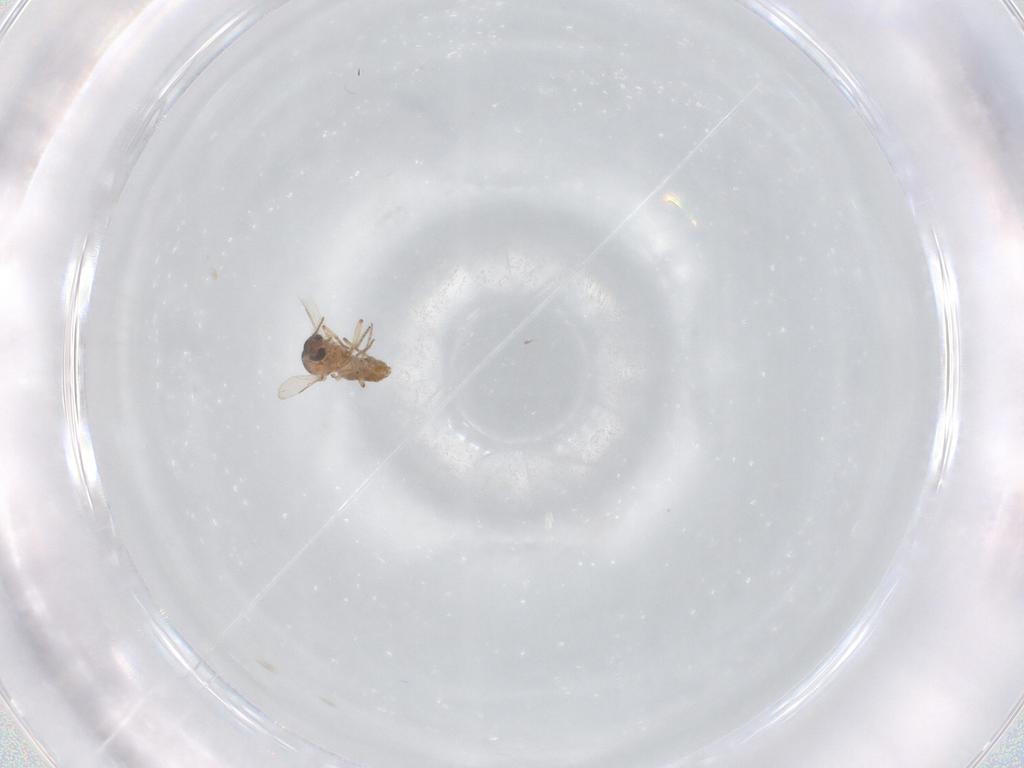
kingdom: Animalia
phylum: Arthropoda
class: Insecta
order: Diptera
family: Ceratopogonidae
